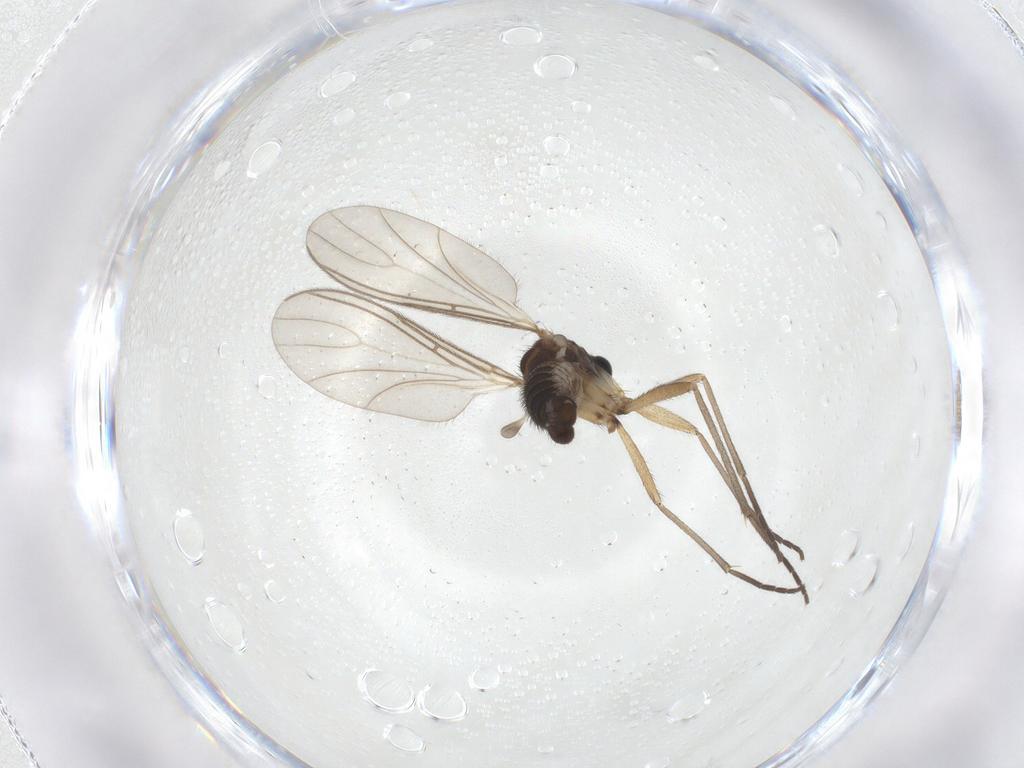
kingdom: Animalia
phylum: Arthropoda
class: Insecta
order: Diptera
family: Sciaridae
